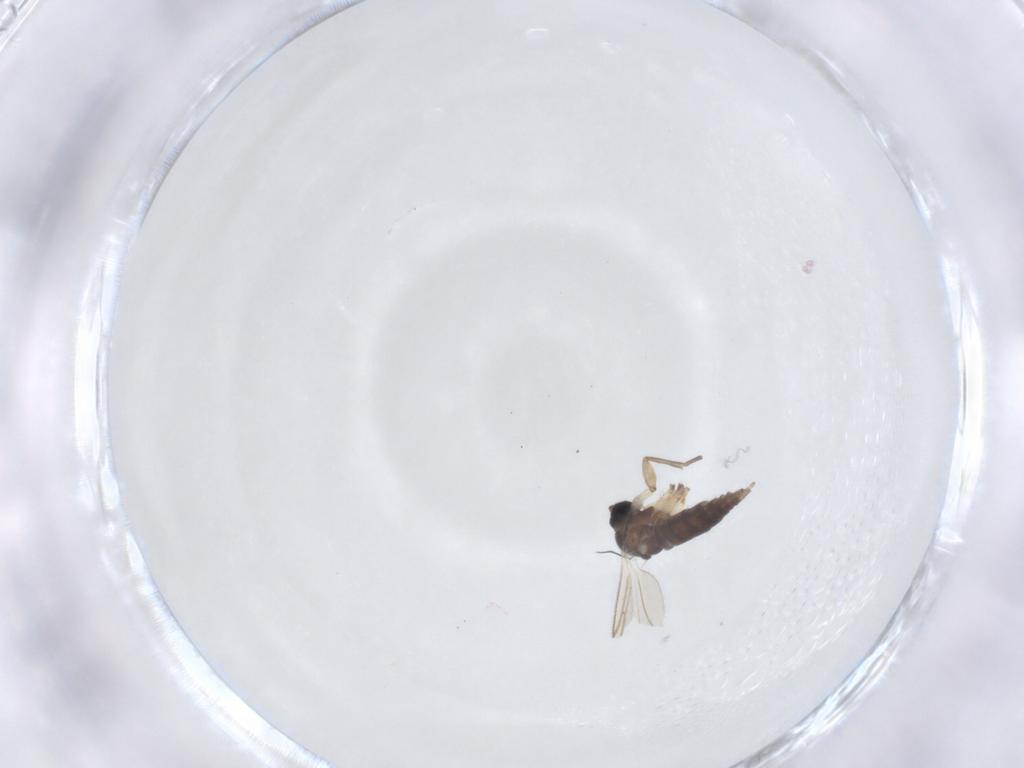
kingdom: Animalia
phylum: Arthropoda
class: Insecta
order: Diptera
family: Sciaridae
